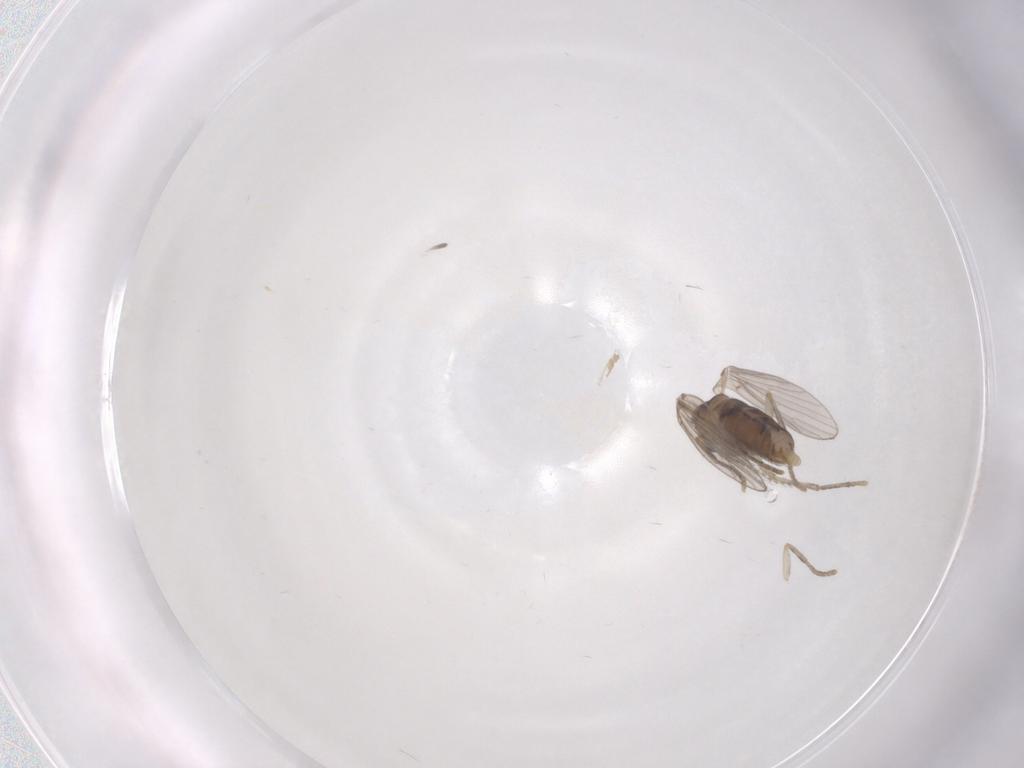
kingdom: Animalia
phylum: Arthropoda
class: Insecta
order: Diptera
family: Psychodidae
